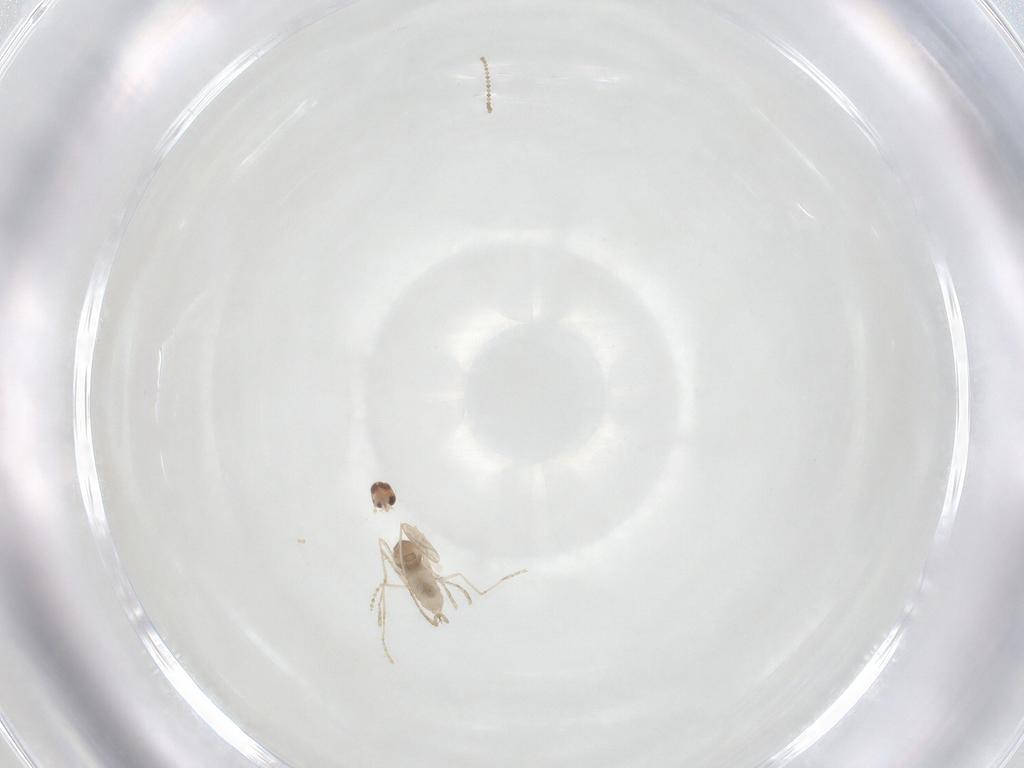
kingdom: Animalia
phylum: Arthropoda
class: Insecta
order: Diptera
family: Cecidomyiidae
